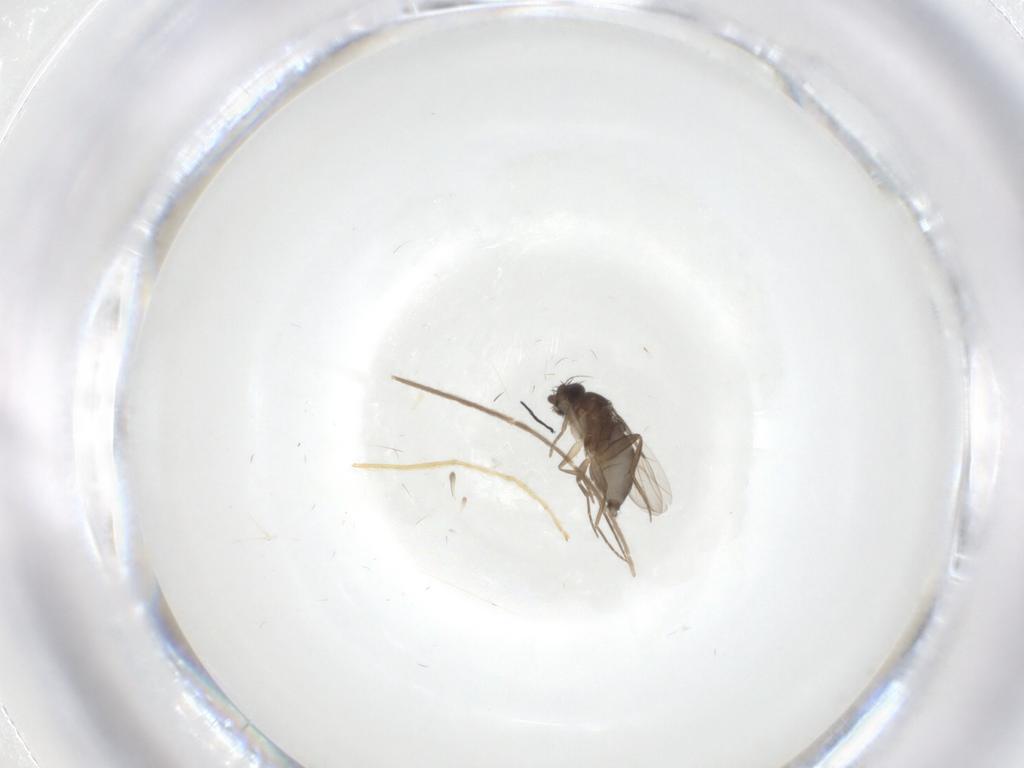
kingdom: Animalia
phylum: Arthropoda
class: Insecta
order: Diptera
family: Phoridae
